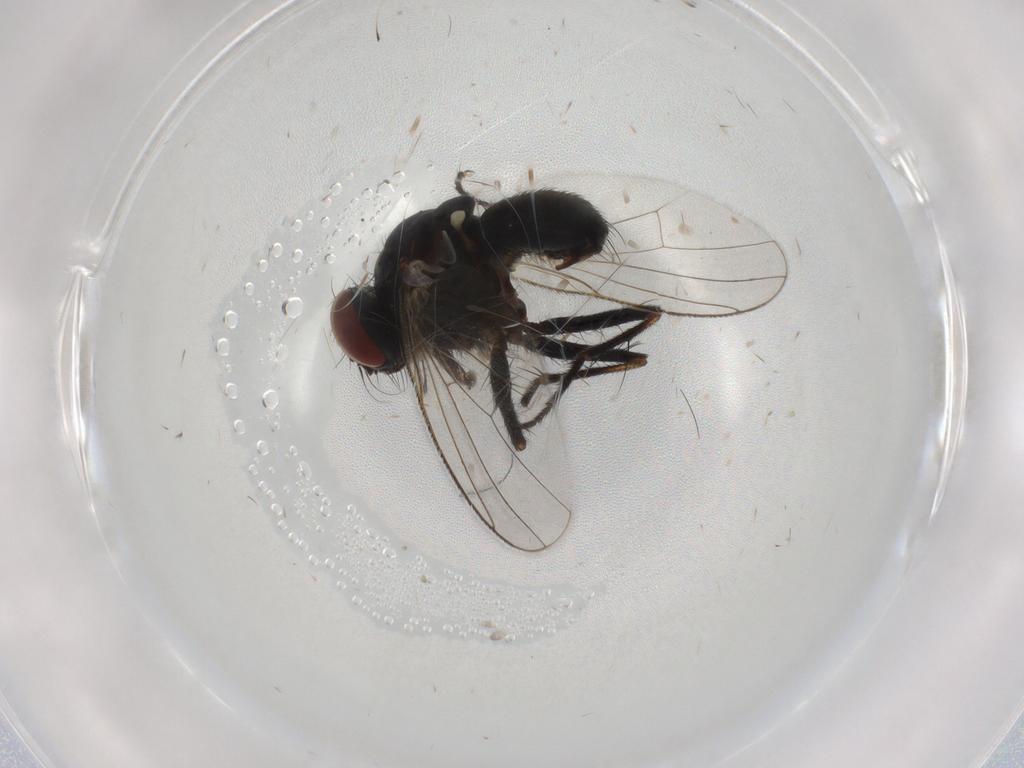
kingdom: Animalia
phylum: Arthropoda
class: Insecta
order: Diptera
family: Muscidae
